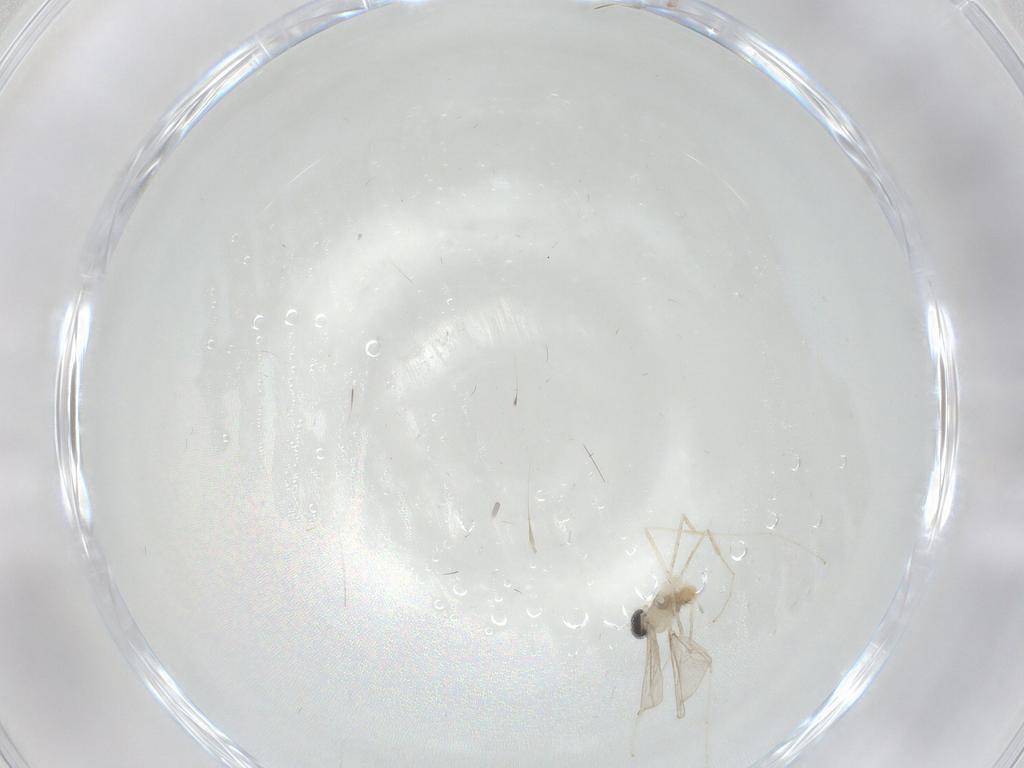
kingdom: Animalia
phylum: Arthropoda
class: Insecta
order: Diptera
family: Cecidomyiidae
